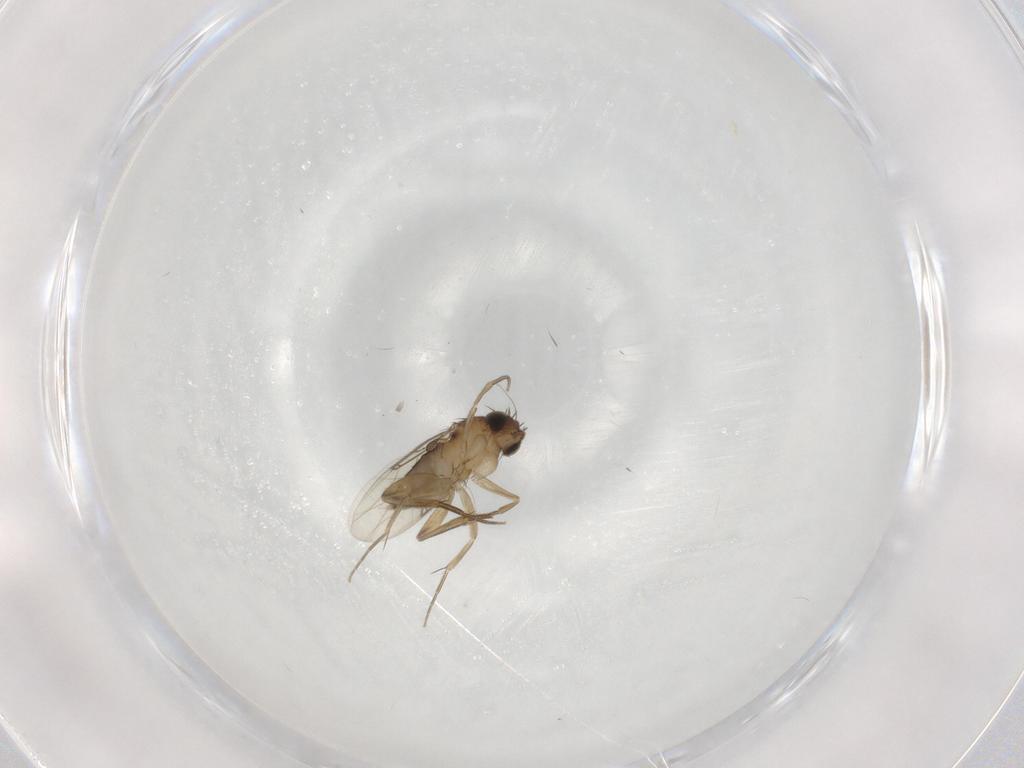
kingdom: Animalia
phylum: Arthropoda
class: Insecta
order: Diptera
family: Phoridae
